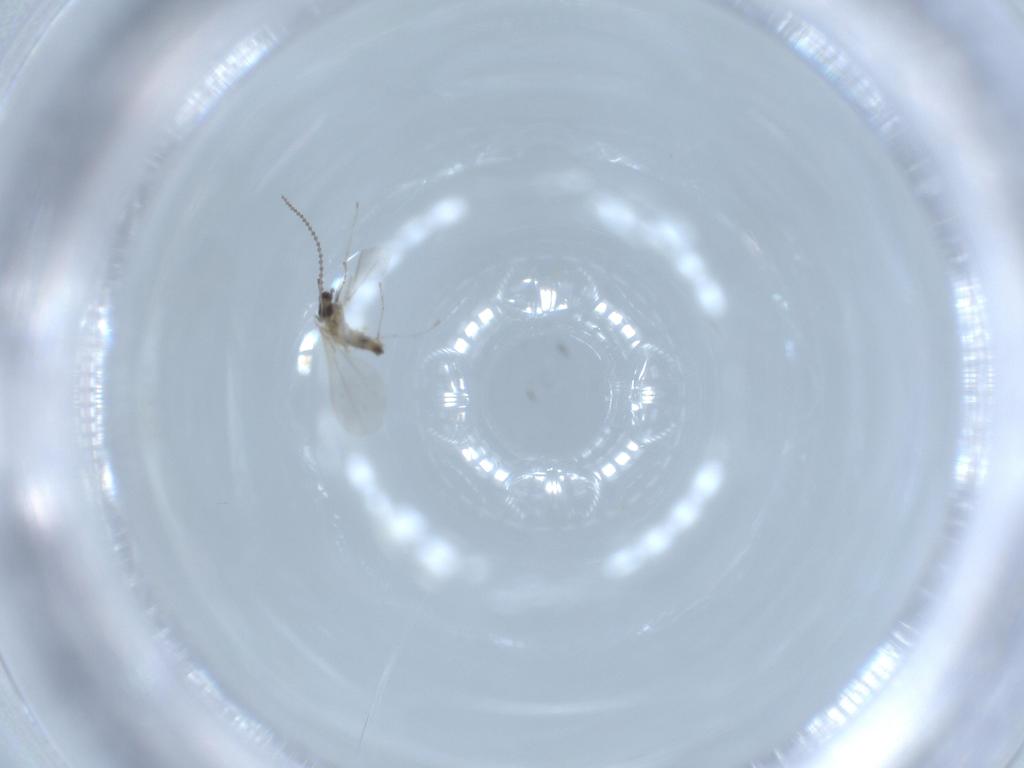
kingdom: Animalia
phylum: Arthropoda
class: Insecta
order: Diptera
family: Cecidomyiidae
